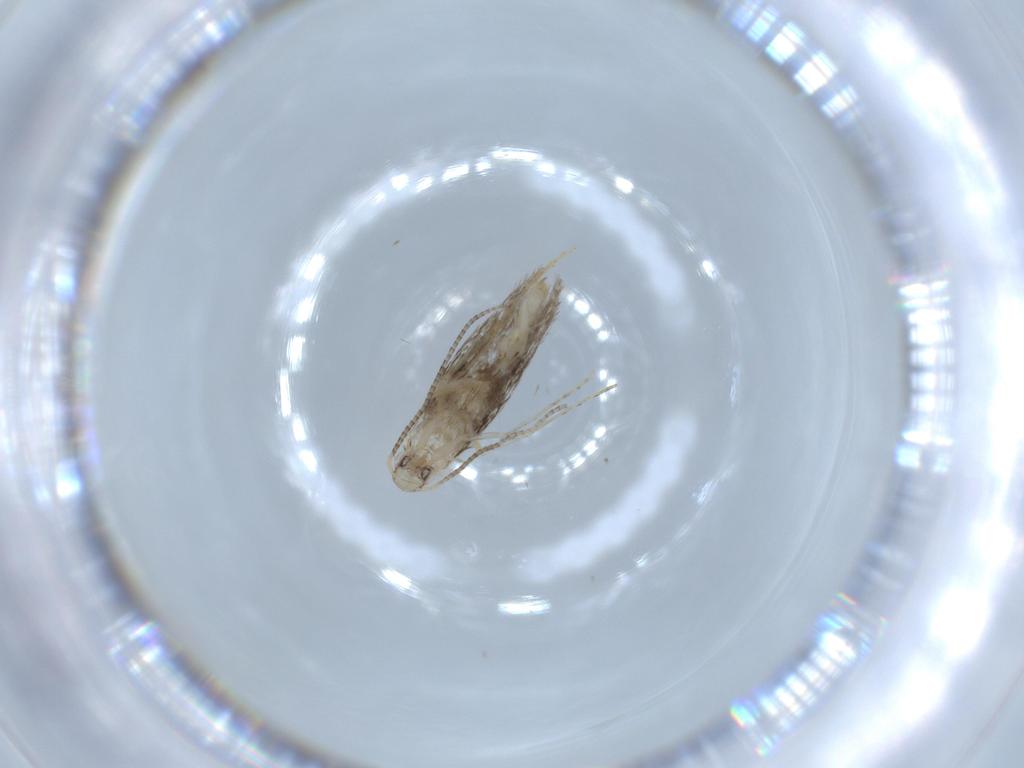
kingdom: Animalia
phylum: Arthropoda
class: Insecta
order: Lepidoptera
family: Gracillariidae
